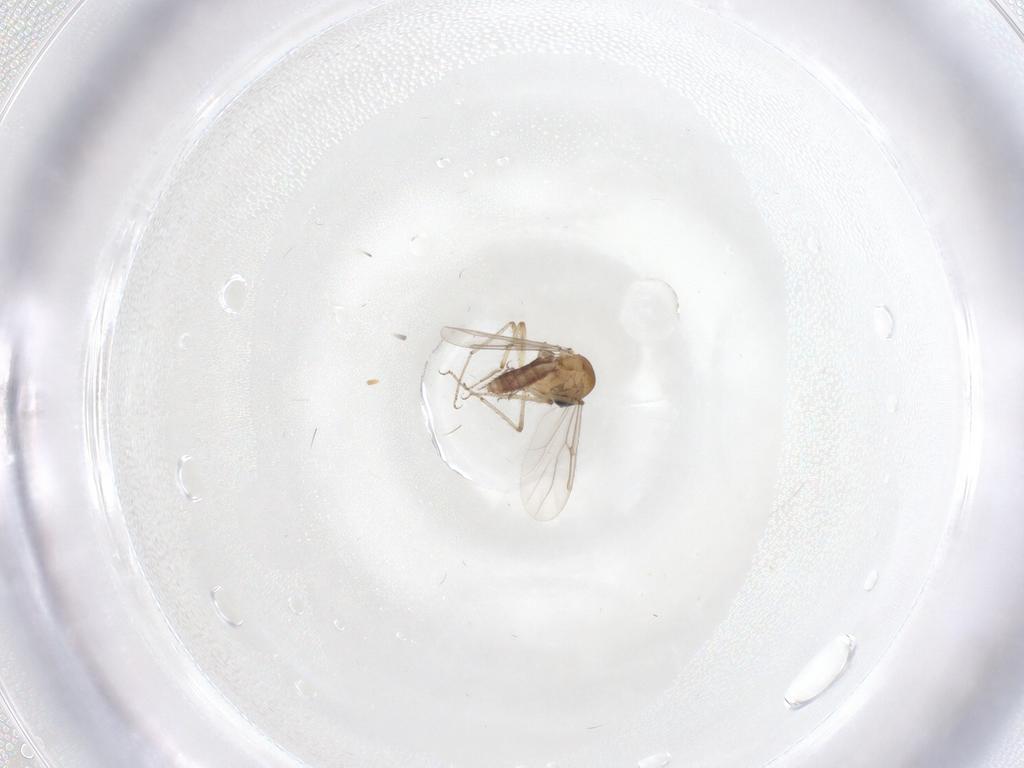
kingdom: Animalia
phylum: Arthropoda
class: Insecta
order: Diptera
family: Ceratopogonidae
